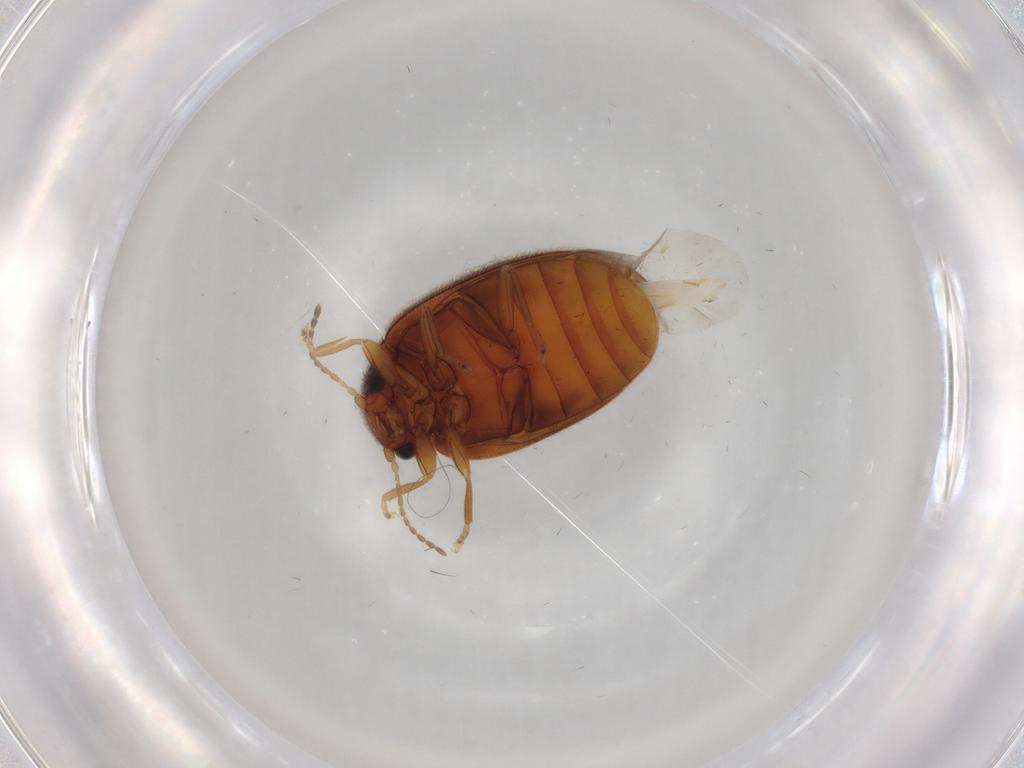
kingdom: Animalia
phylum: Arthropoda
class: Insecta
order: Coleoptera
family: Scirtidae
